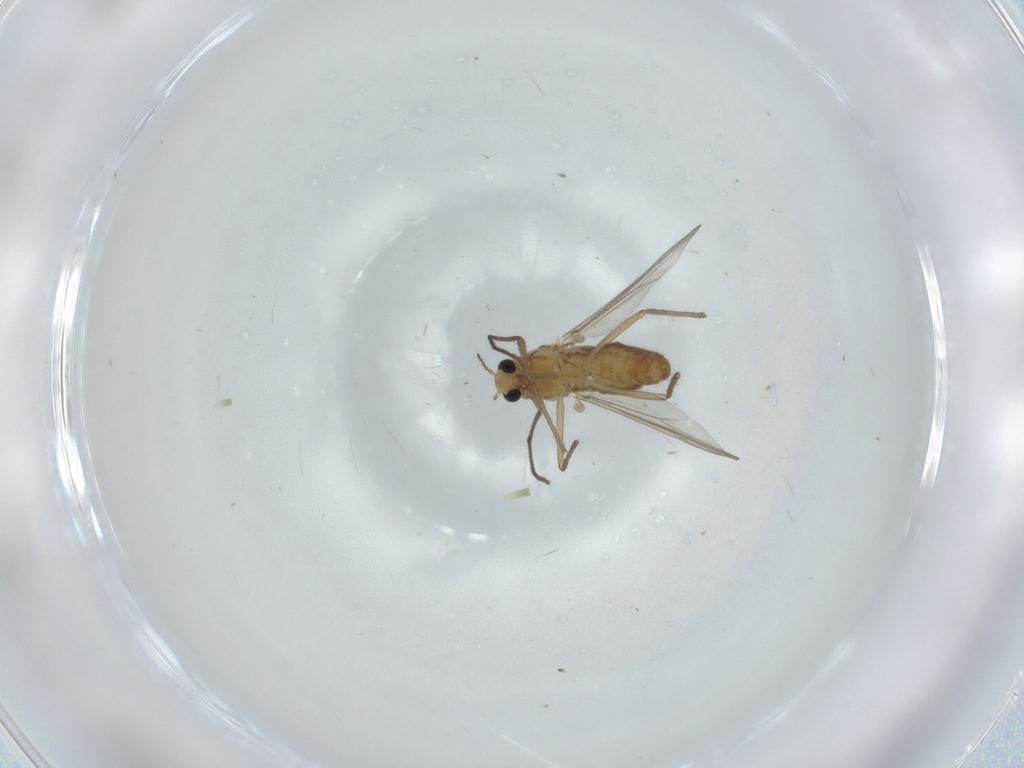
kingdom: Animalia
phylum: Arthropoda
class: Insecta
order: Diptera
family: Chironomidae
